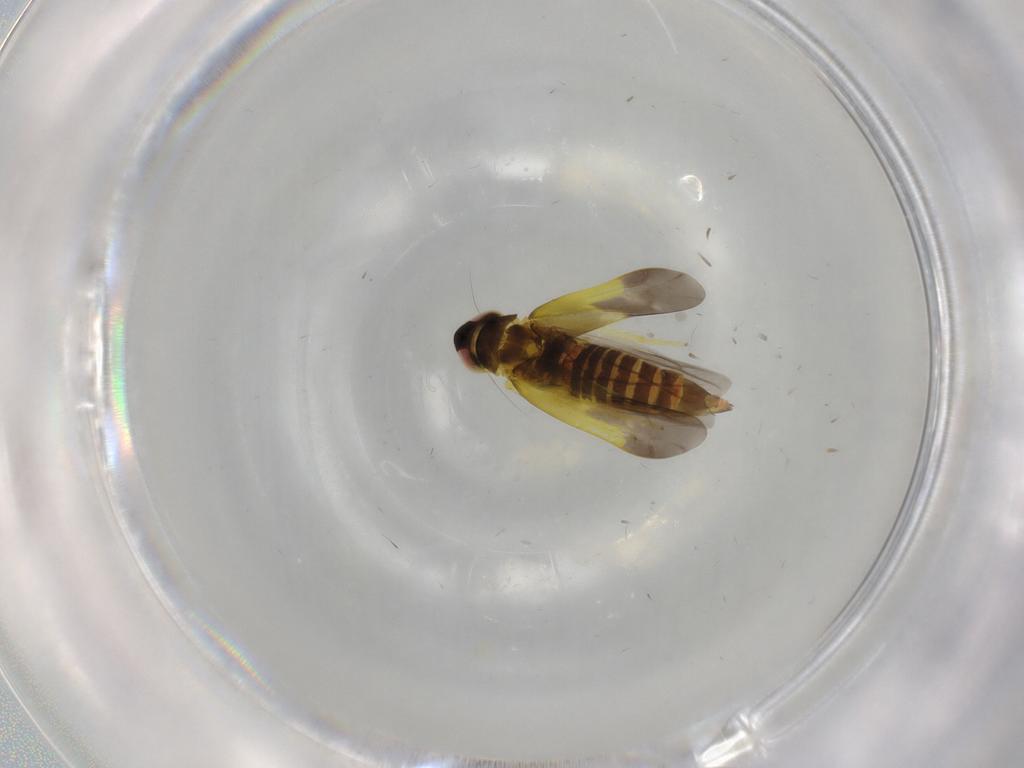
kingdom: Animalia
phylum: Arthropoda
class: Insecta
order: Hemiptera
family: Cicadellidae
